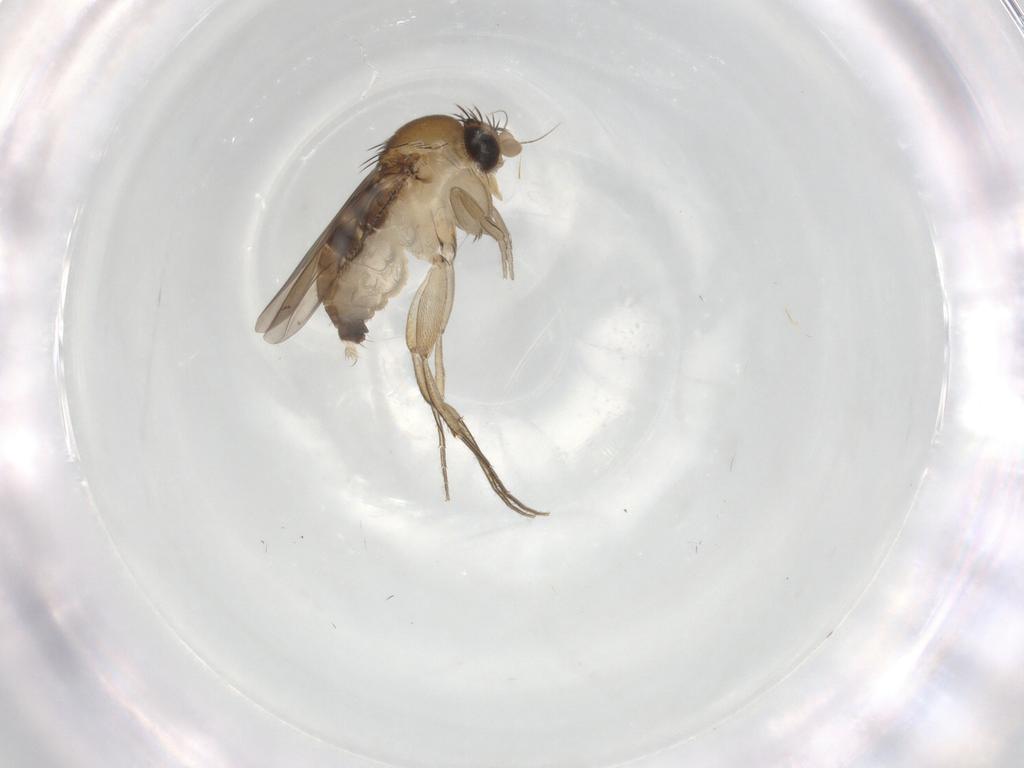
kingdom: Animalia
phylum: Arthropoda
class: Insecta
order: Diptera
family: Phoridae
